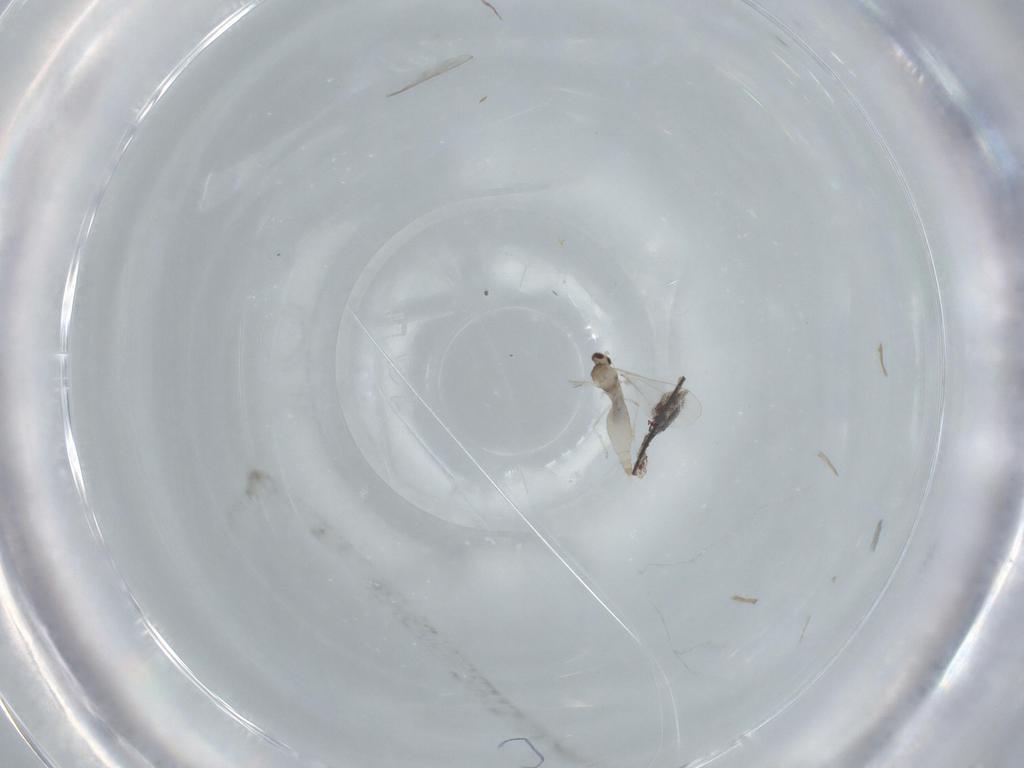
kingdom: Animalia
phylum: Arthropoda
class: Insecta
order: Diptera
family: Cecidomyiidae
